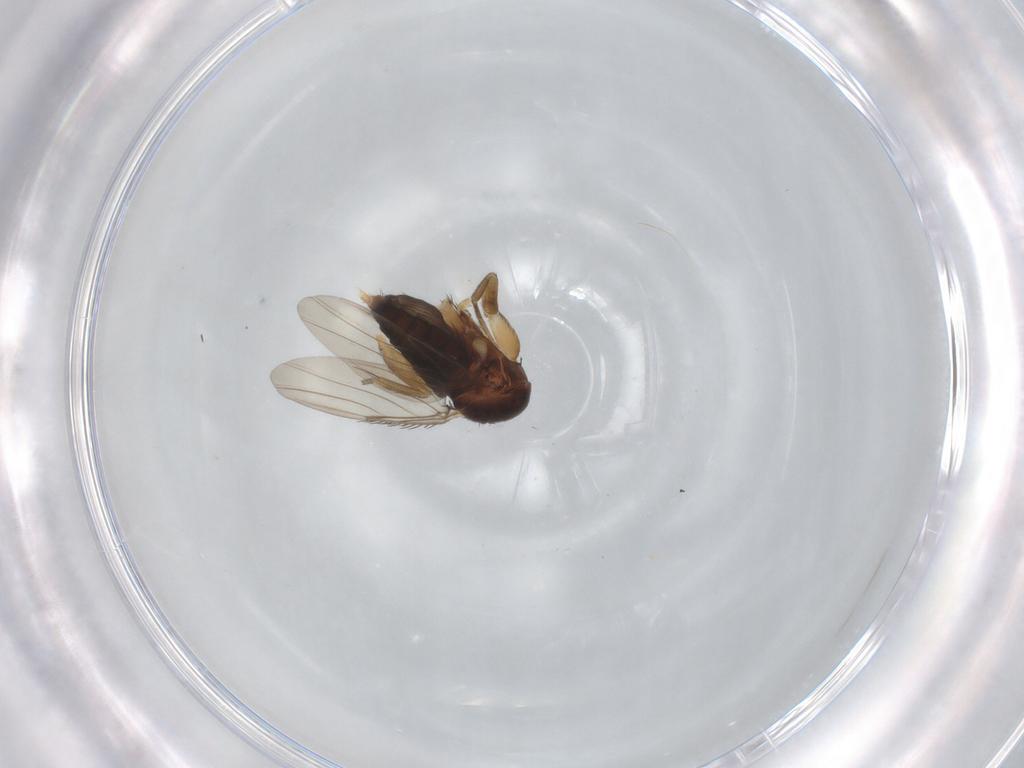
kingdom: Animalia
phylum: Arthropoda
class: Insecta
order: Diptera
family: Phoridae
